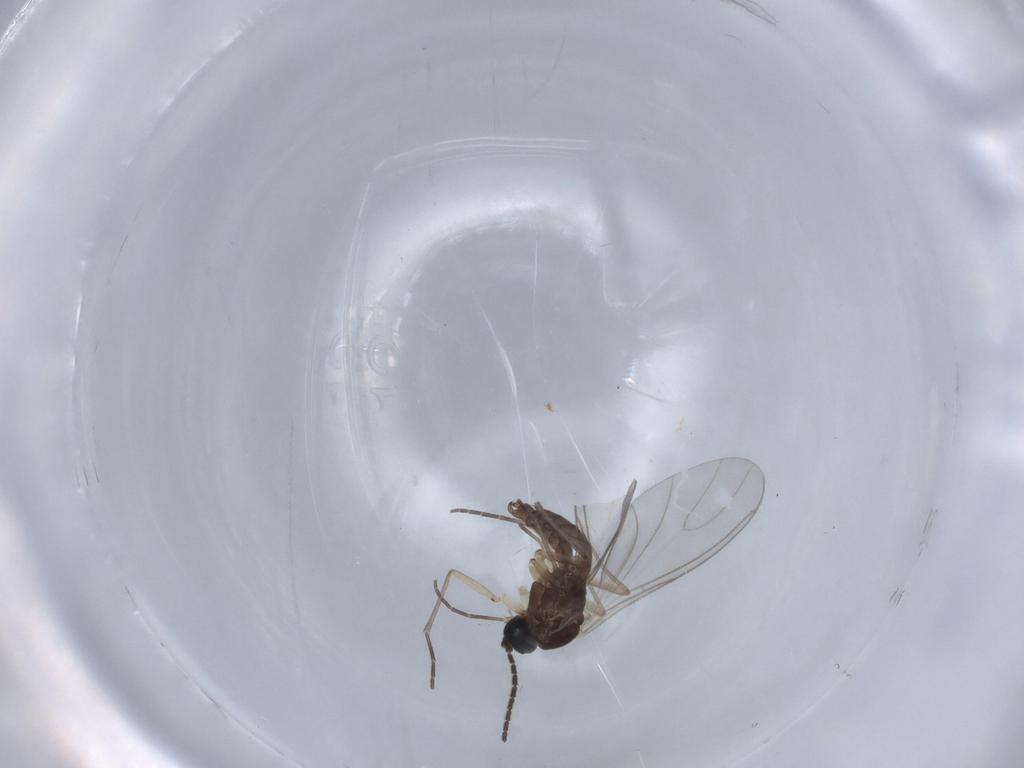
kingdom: Animalia
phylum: Arthropoda
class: Insecta
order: Diptera
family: Sciaridae
